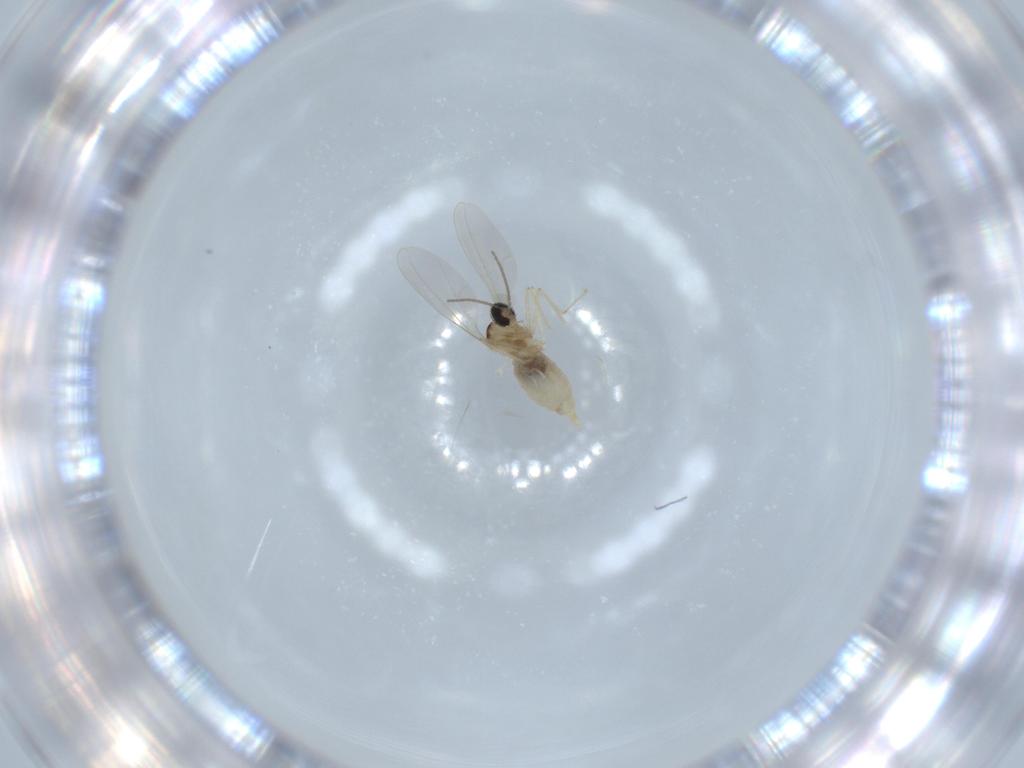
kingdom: Animalia
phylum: Arthropoda
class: Insecta
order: Diptera
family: Cecidomyiidae
